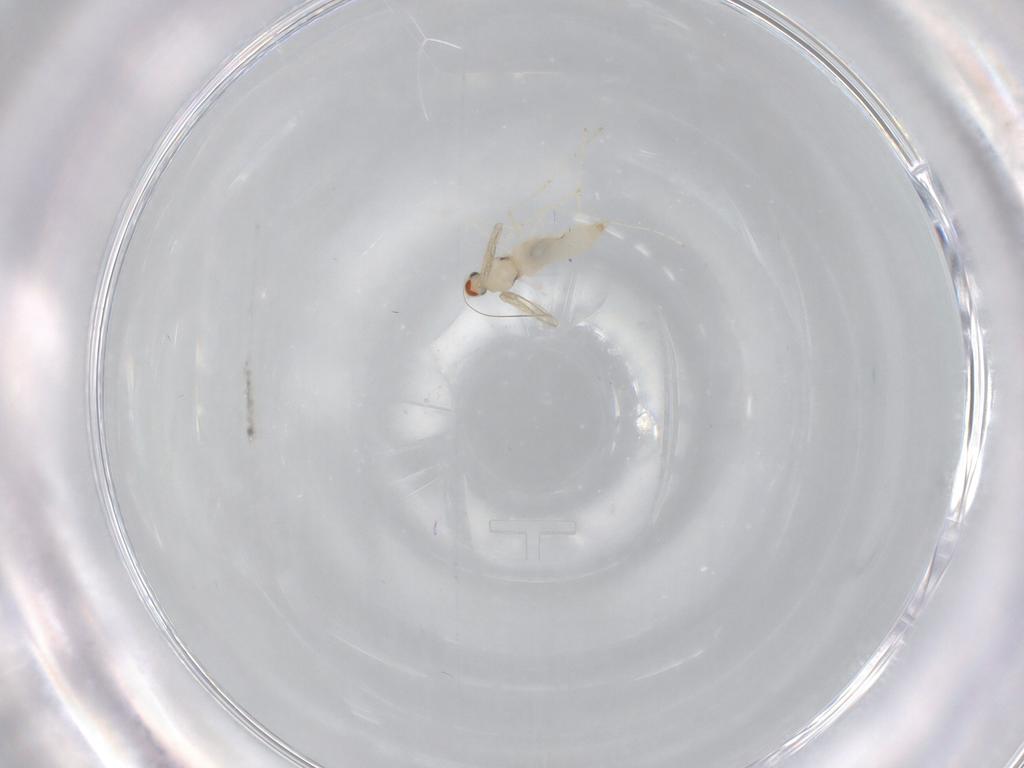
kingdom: Animalia
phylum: Arthropoda
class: Insecta
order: Diptera
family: Cecidomyiidae
